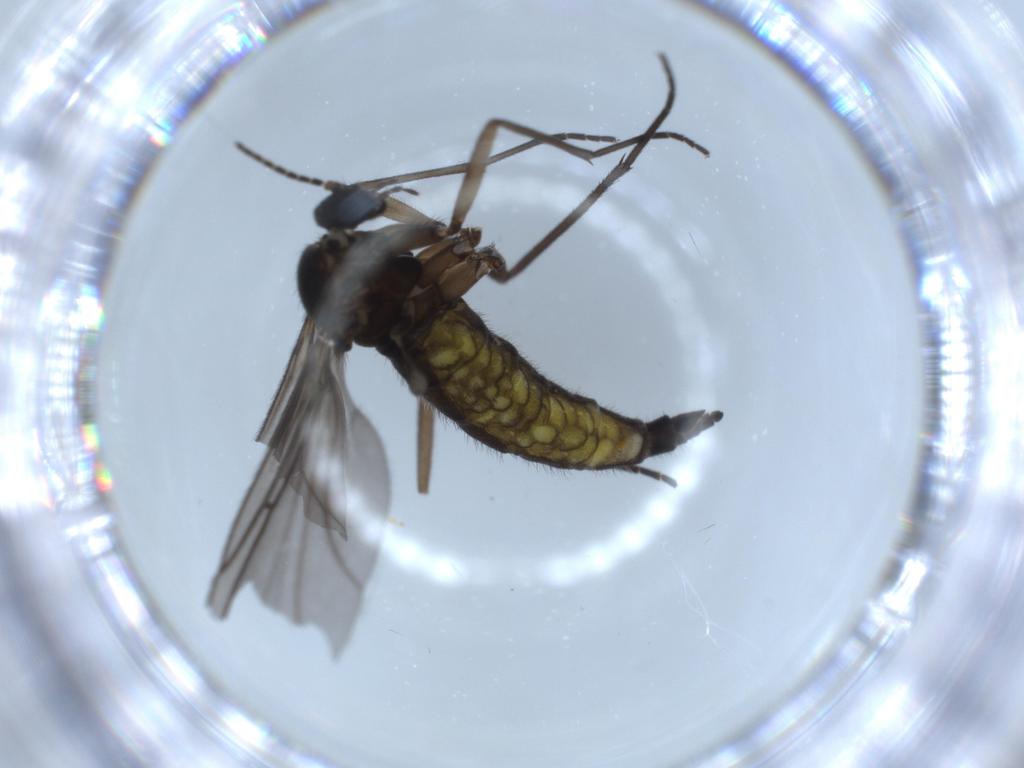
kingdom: Animalia
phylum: Arthropoda
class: Insecta
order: Diptera
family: Sciaridae
